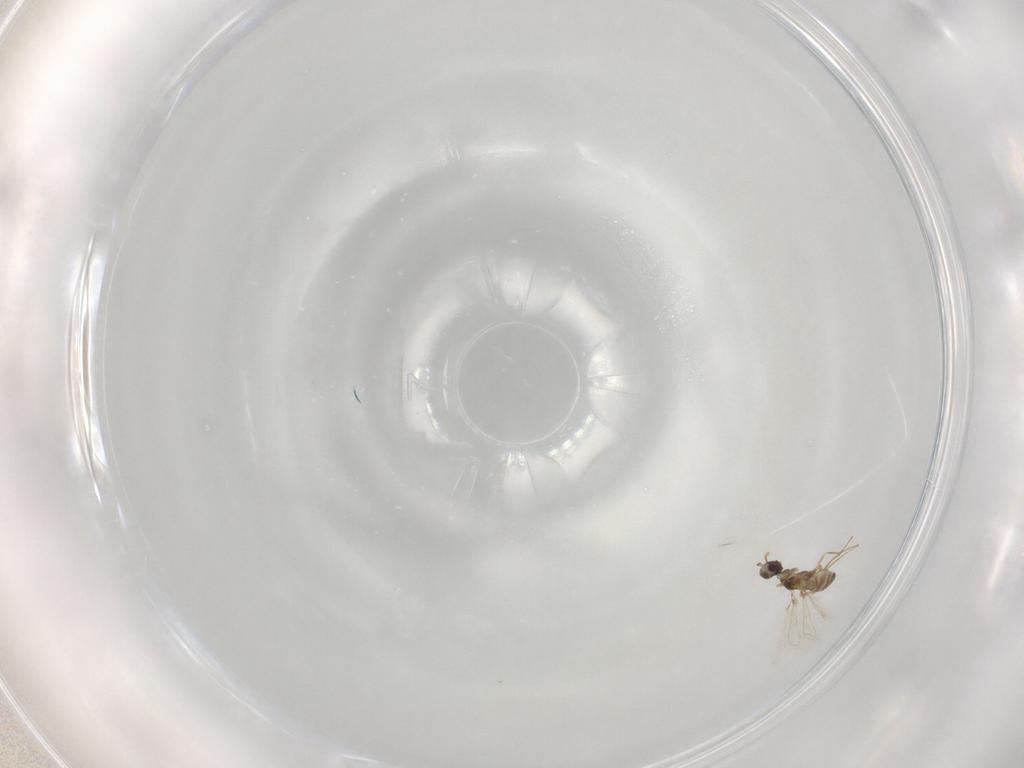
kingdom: Animalia
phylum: Arthropoda
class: Insecta
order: Hymenoptera
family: Mymaridae
